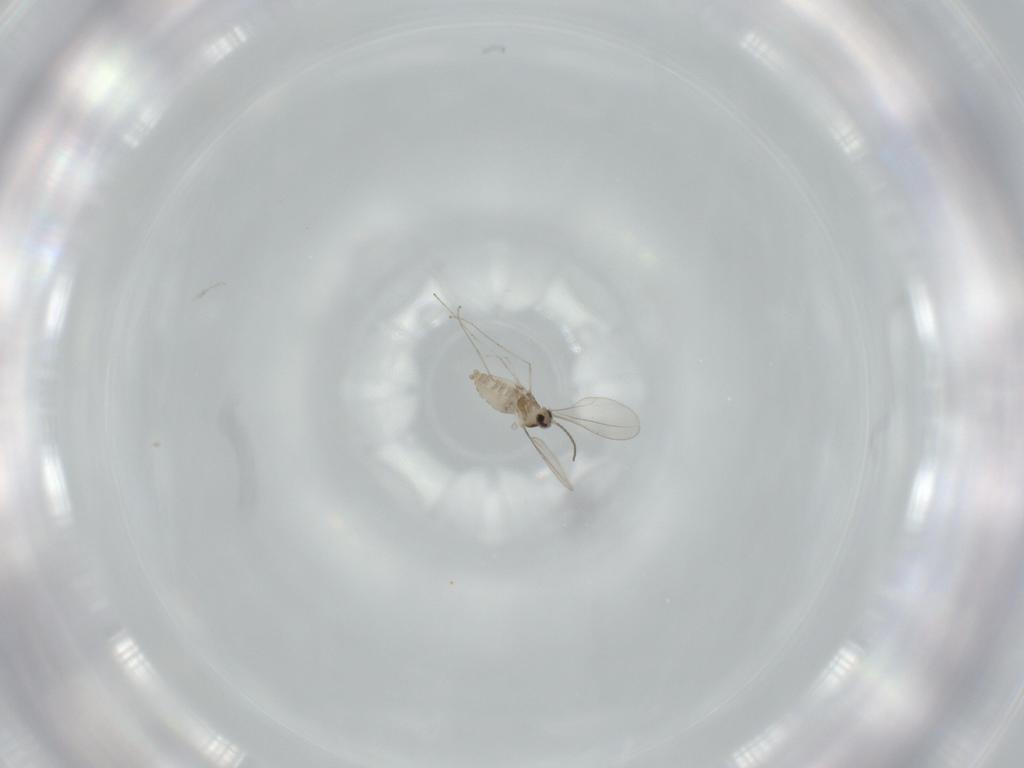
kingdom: Animalia
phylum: Arthropoda
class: Insecta
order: Diptera
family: Cecidomyiidae
